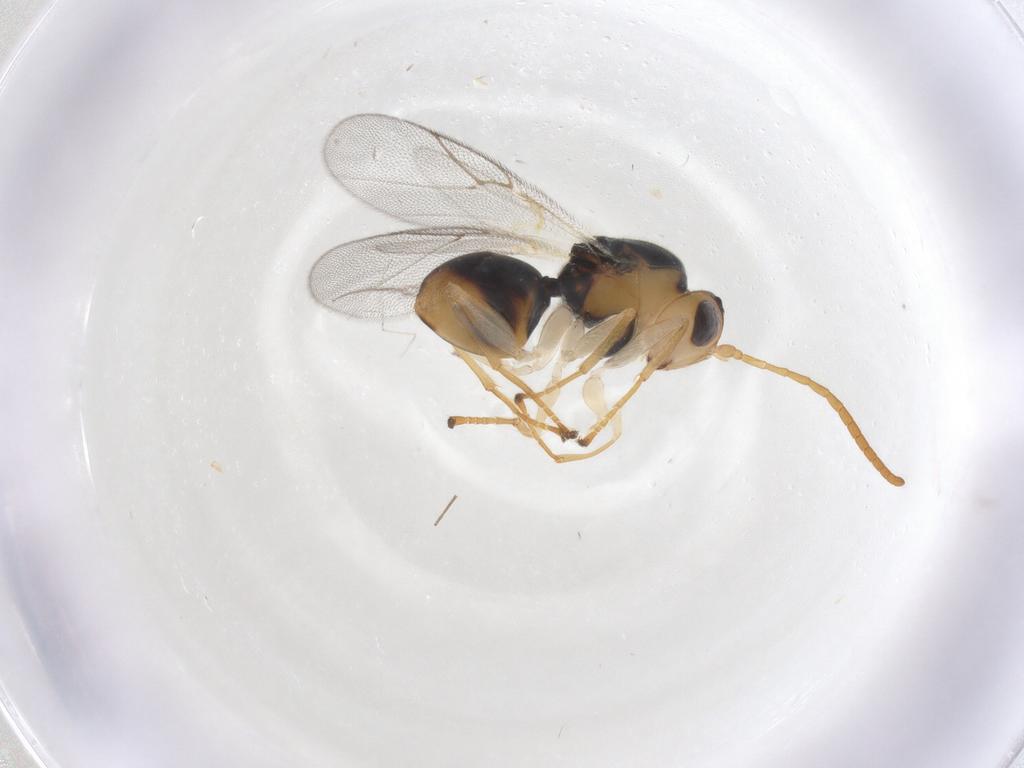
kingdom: Animalia
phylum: Arthropoda
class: Insecta
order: Hymenoptera
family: Cynipidae
